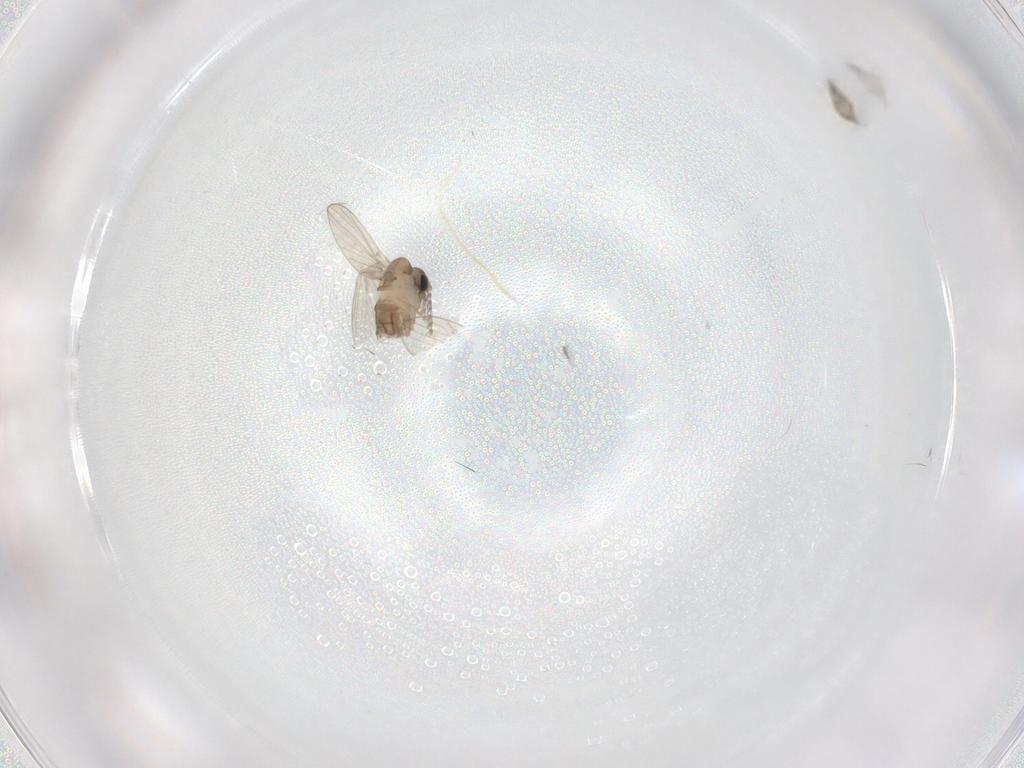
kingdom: Animalia
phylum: Arthropoda
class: Insecta
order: Diptera
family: Psychodidae
